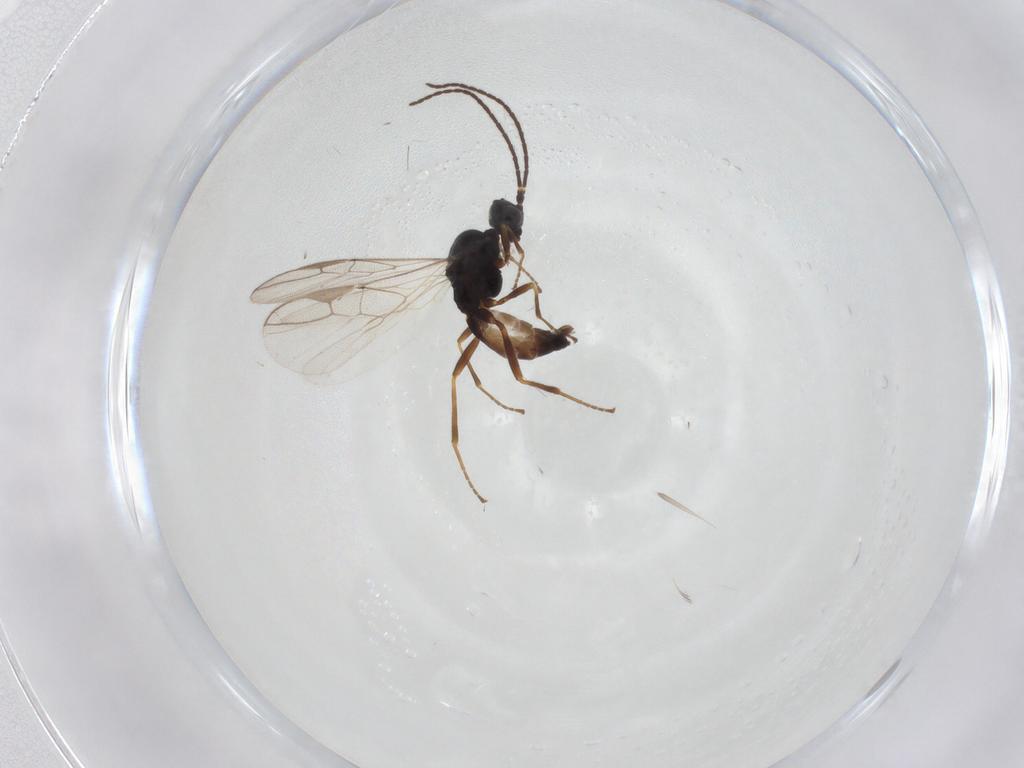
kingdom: Animalia
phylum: Arthropoda
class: Insecta
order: Hymenoptera
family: Braconidae
